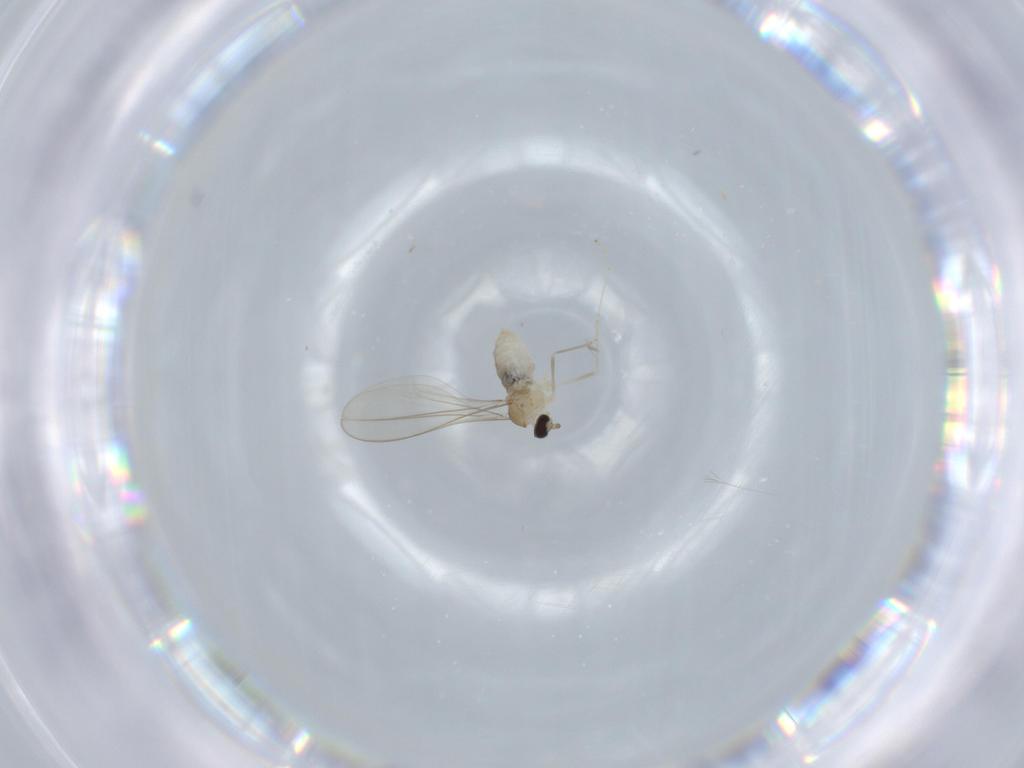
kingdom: Animalia
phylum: Arthropoda
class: Insecta
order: Diptera
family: Cecidomyiidae
